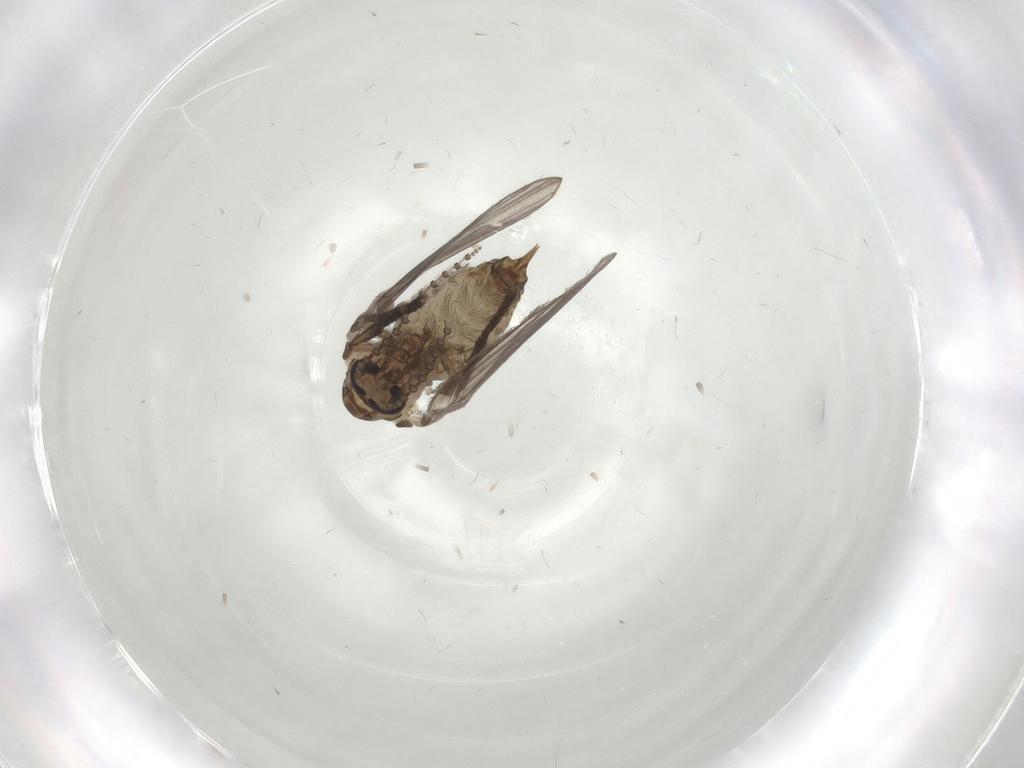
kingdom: Animalia
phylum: Arthropoda
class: Insecta
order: Diptera
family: Psychodidae
